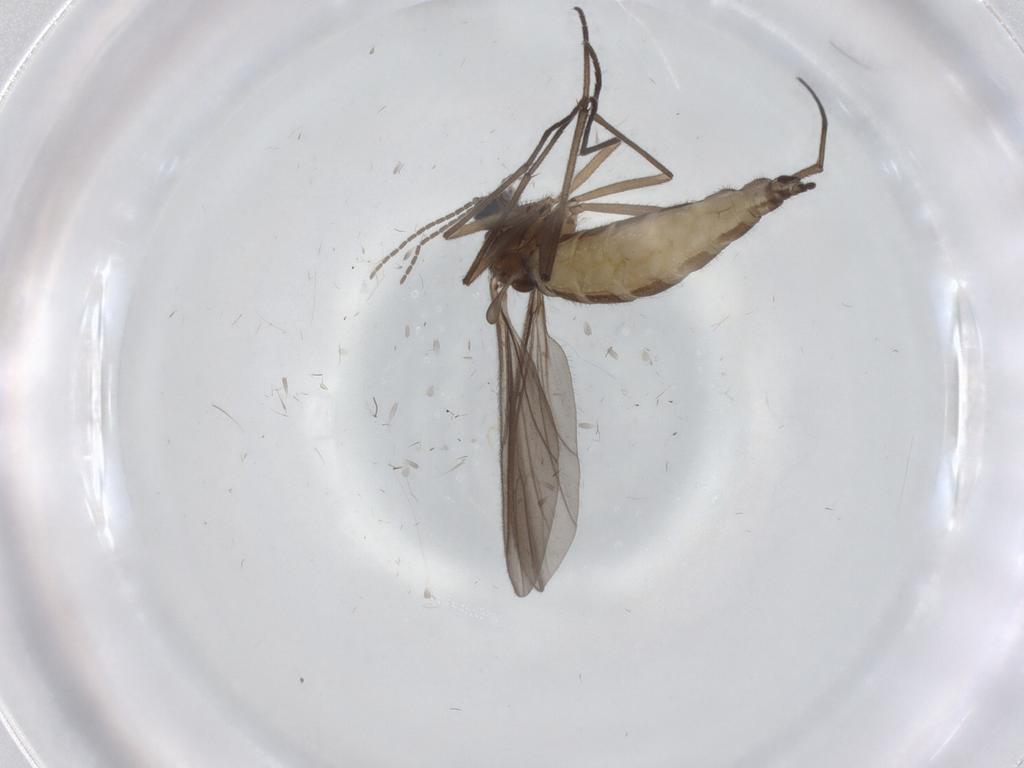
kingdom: Animalia
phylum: Arthropoda
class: Insecta
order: Diptera
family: Sciaridae
